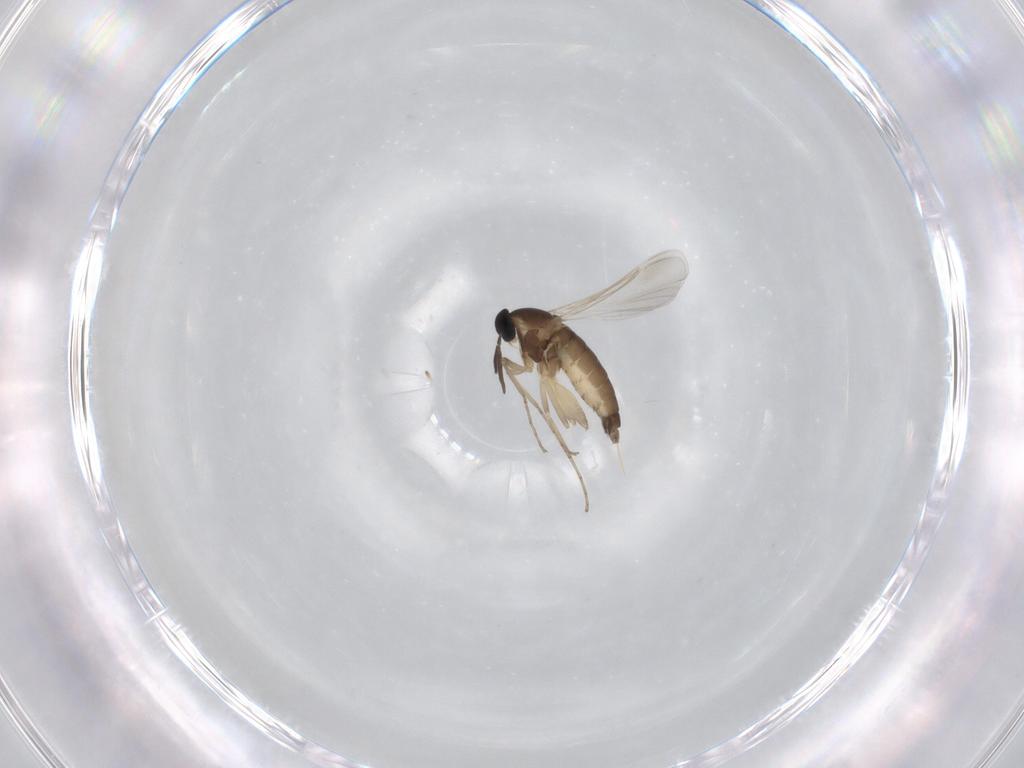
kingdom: Animalia
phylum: Arthropoda
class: Insecta
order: Diptera
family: Cecidomyiidae
